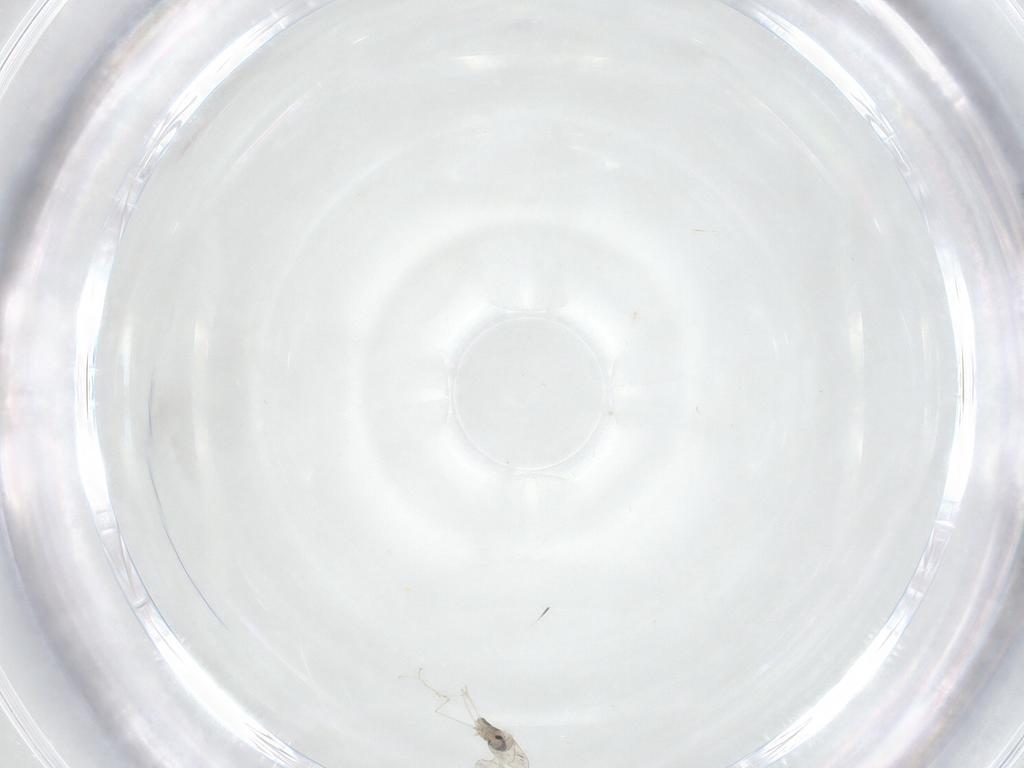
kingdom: Animalia
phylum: Arthropoda
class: Insecta
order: Diptera
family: Cecidomyiidae
